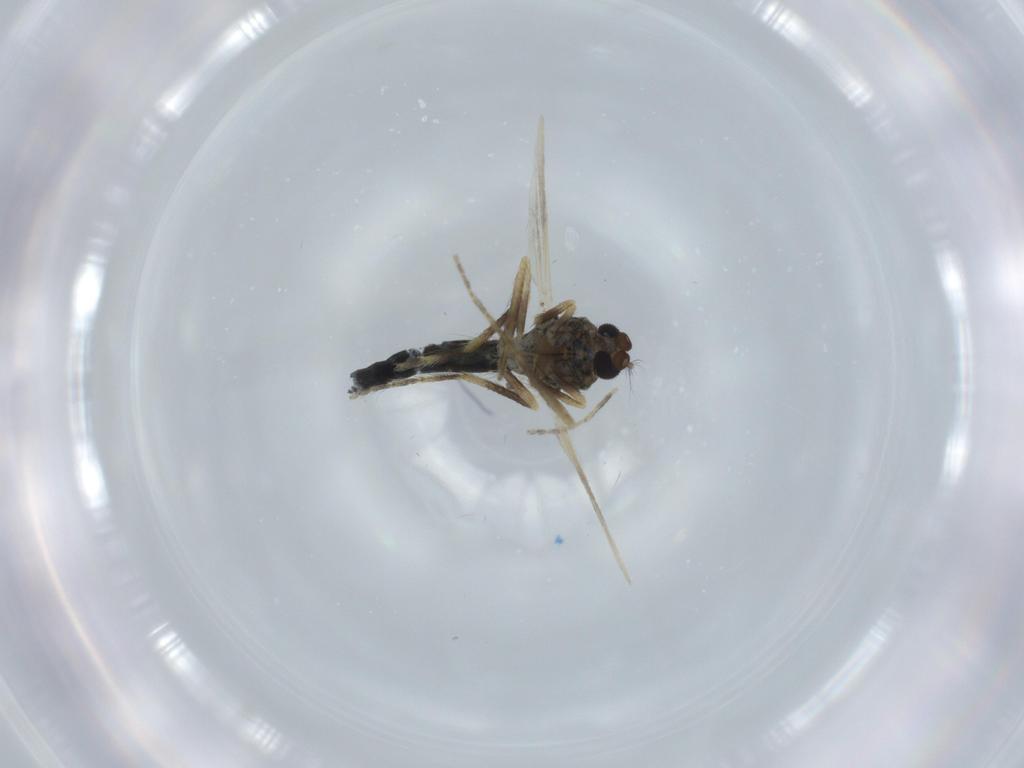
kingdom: Animalia
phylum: Arthropoda
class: Insecta
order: Diptera
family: Ceratopogonidae
